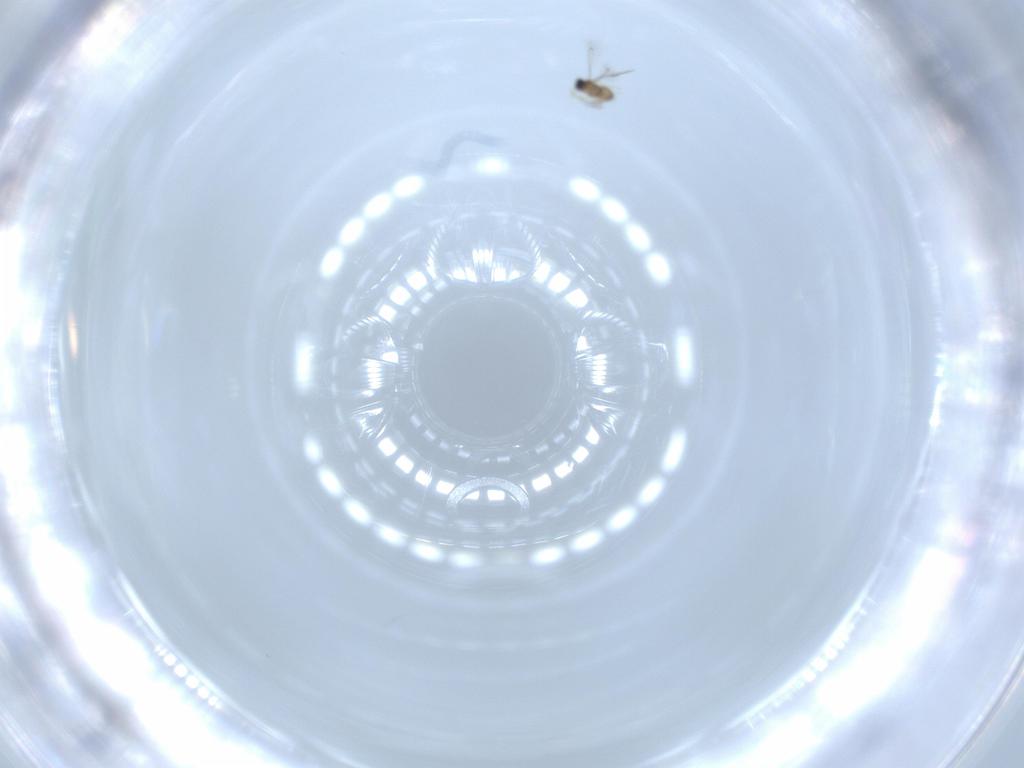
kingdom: Animalia
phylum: Arthropoda
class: Insecta
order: Hymenoptera
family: Mymaridae
